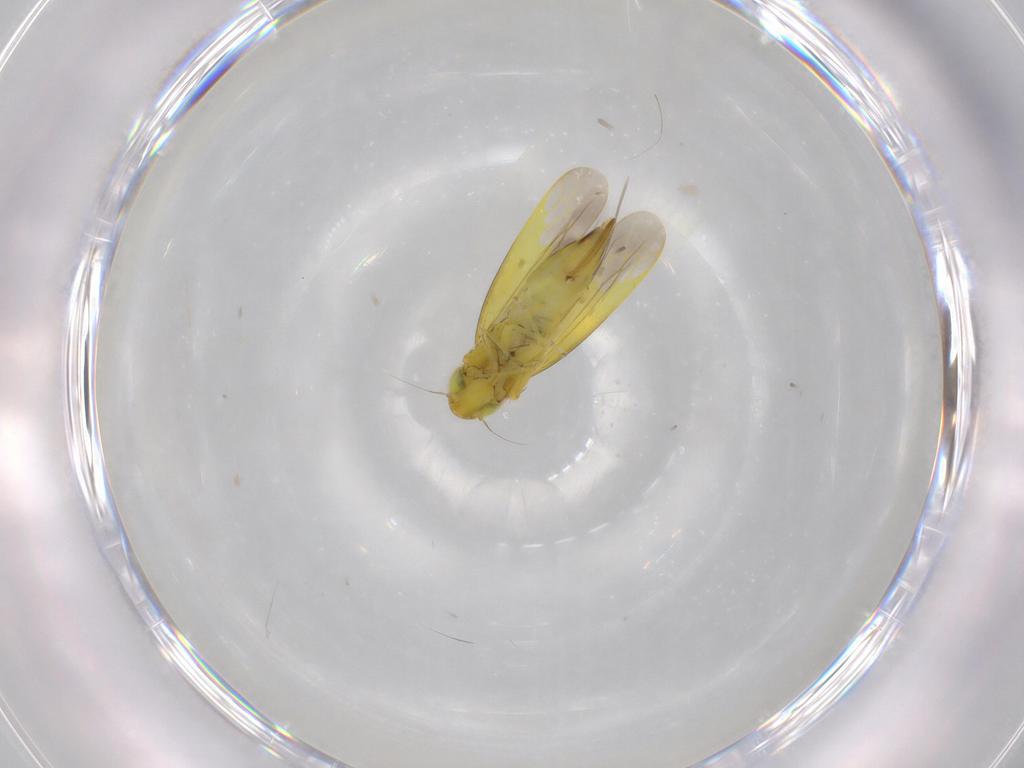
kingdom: Animalia
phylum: Arthropoda
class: Insecta
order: Hemiptera
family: Cicadellidae
